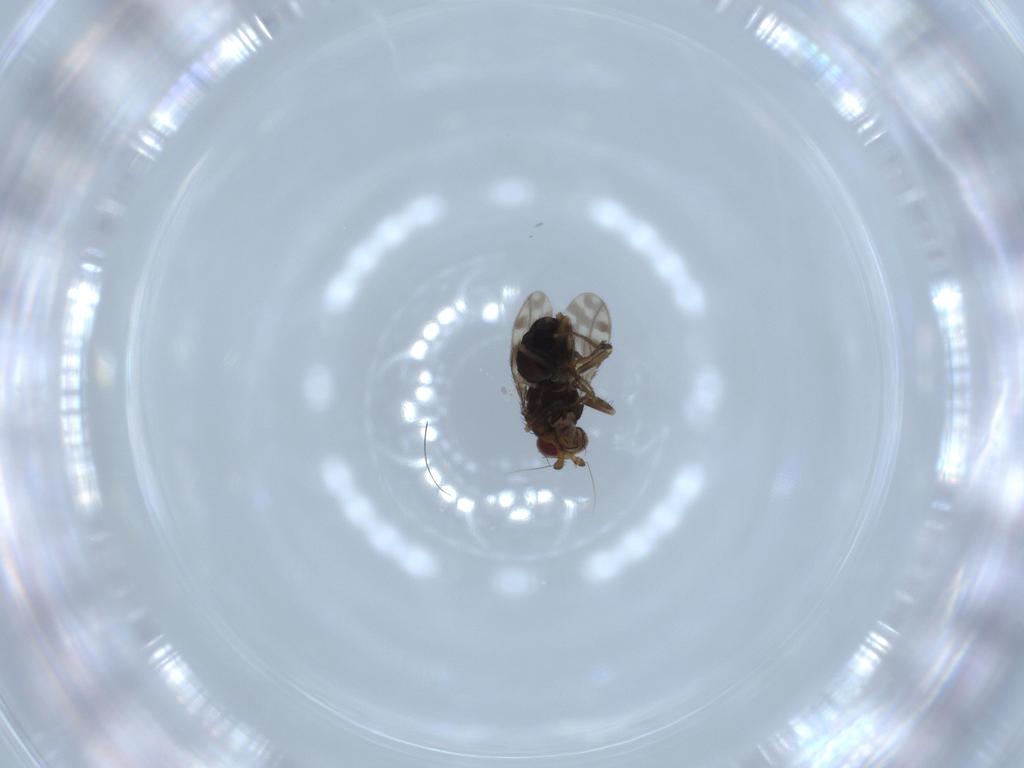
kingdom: Animalia
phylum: Arthropoda
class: Insecta
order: Diptera
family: Sphaeroceridae
